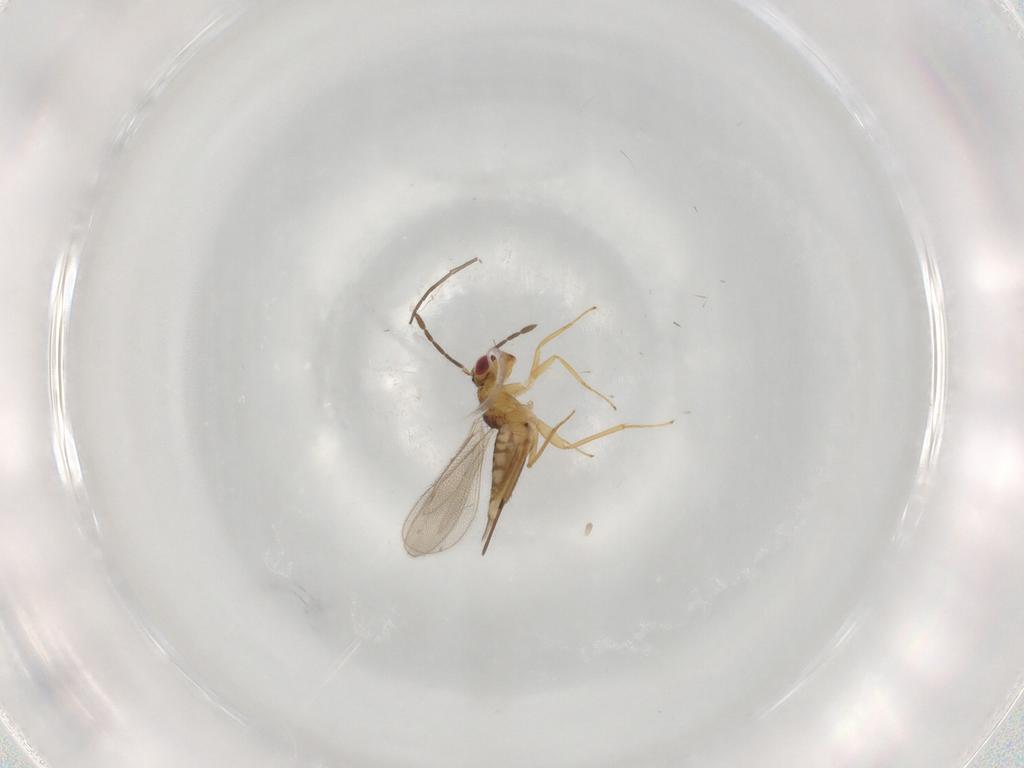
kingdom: Animalia
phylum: Arthropoda
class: Insecta
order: Hymenoptera
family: Eulophidae
